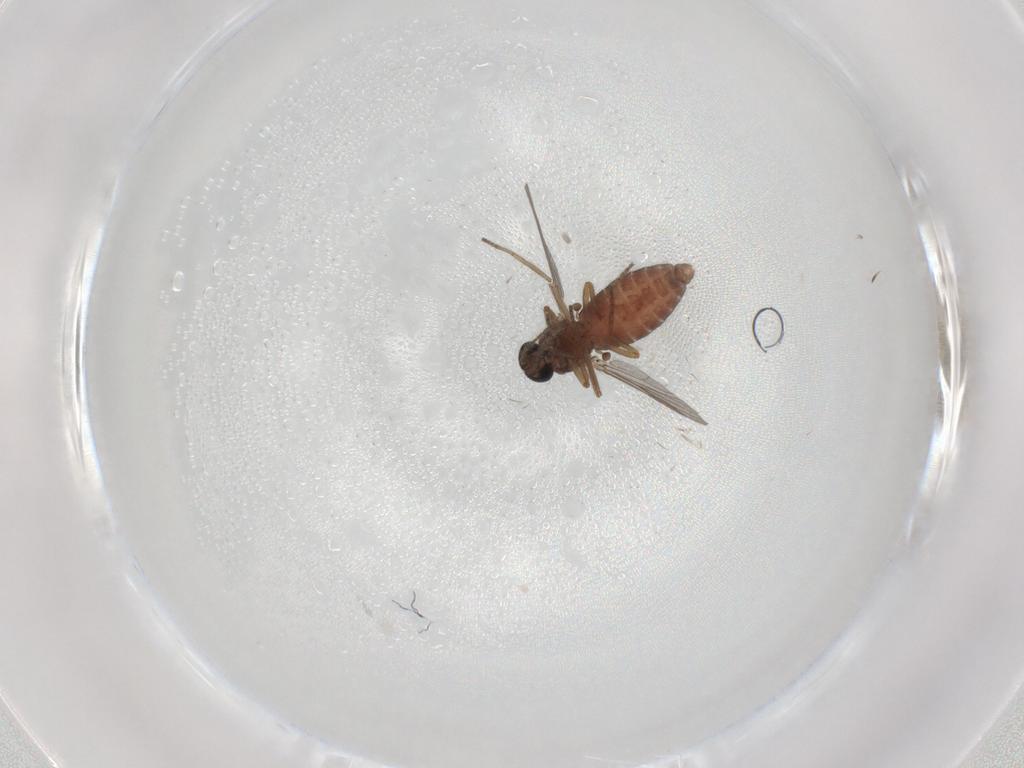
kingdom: Animalia
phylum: Arthropoda
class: Insecta
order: Diptera
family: Ceratopogonidae
